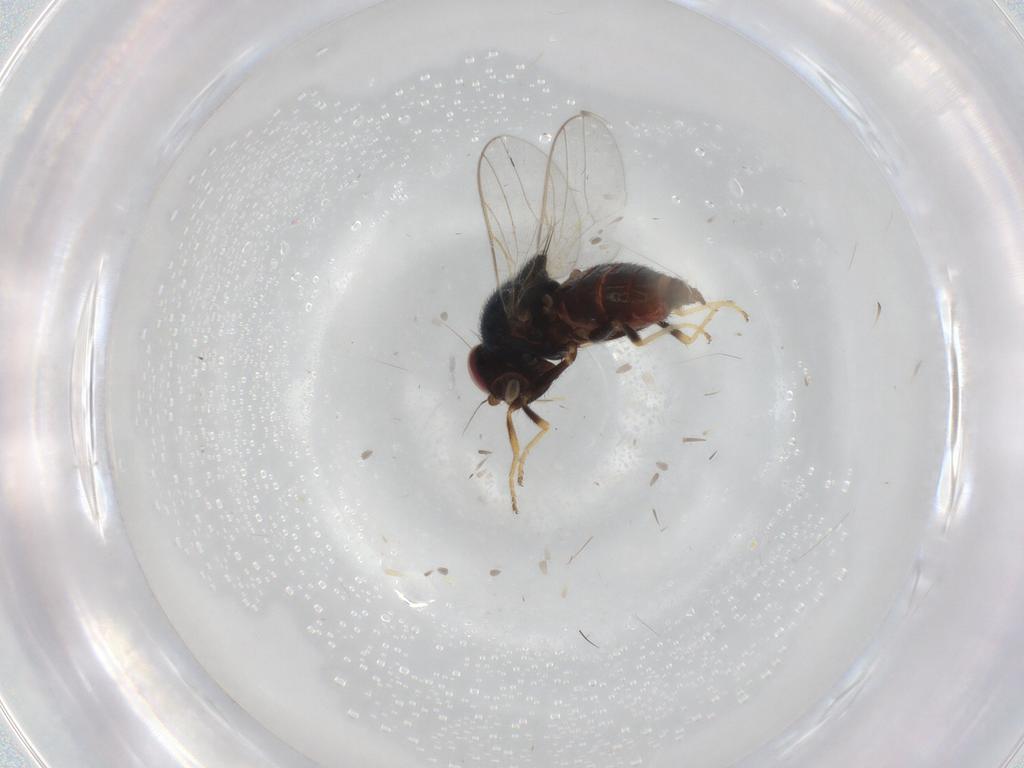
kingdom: Animalia
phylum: Arthropoda
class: Insecta
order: Diptera
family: Chloropidae
